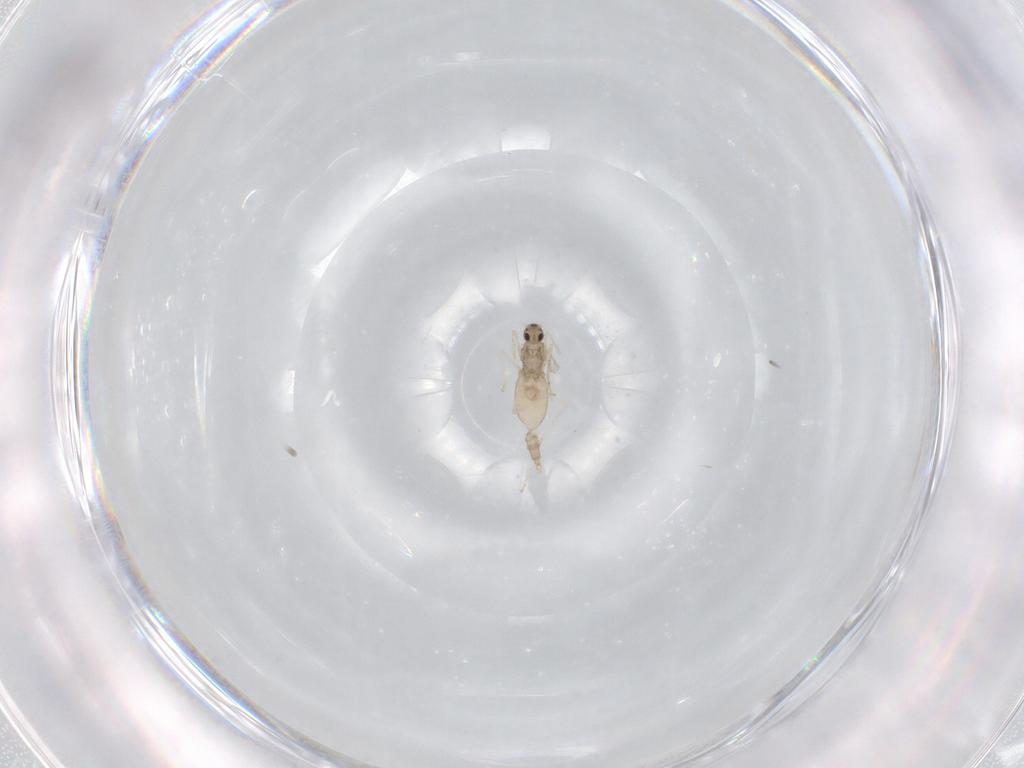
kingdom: Animalia
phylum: Arthropoda
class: Insecta
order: Diptera
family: Cecidomyiidae
